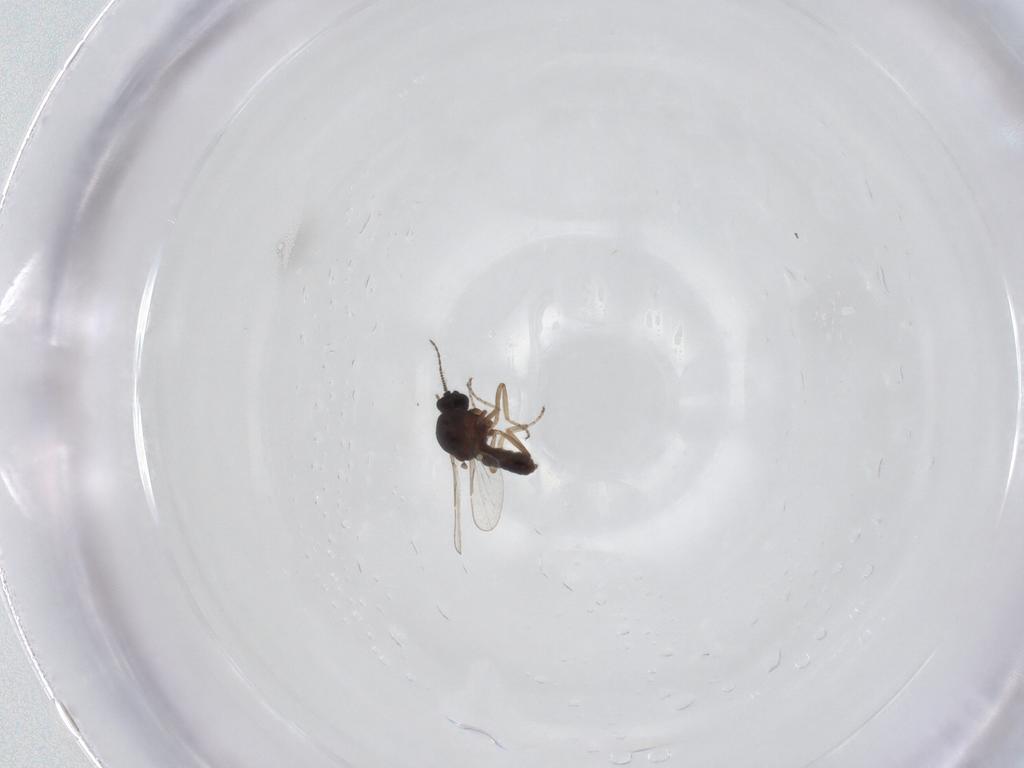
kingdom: Animalia
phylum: Arthropoda
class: Insecta
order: Diptera
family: Ceratopogonidae
